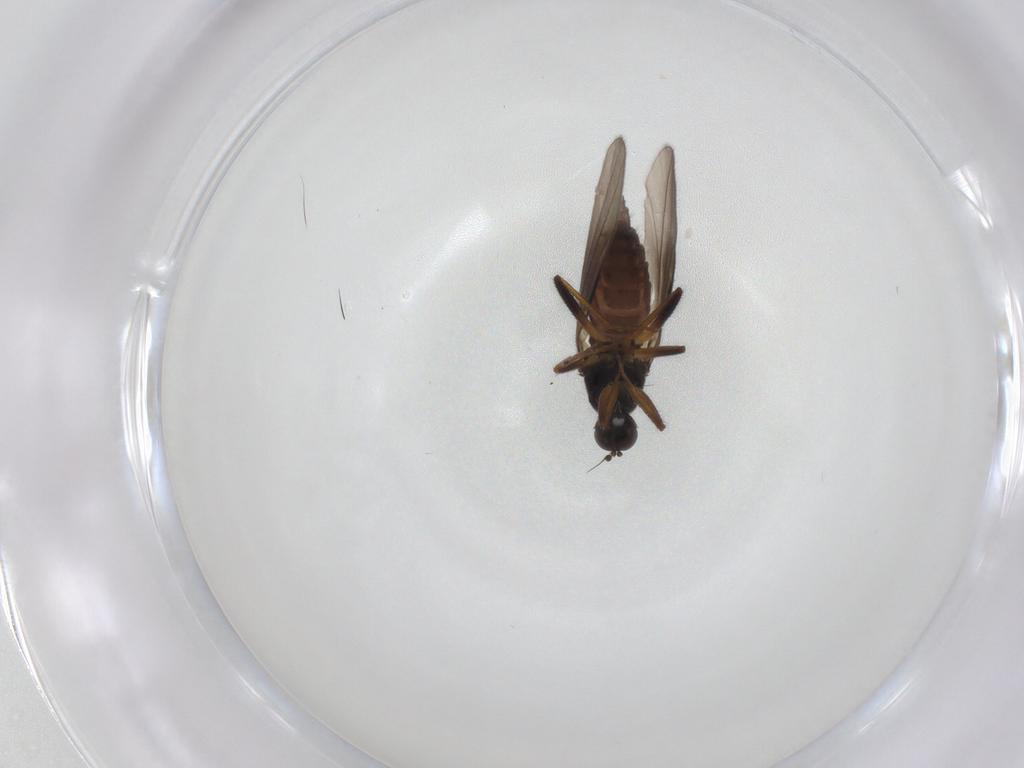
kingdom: Animalia
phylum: Arthropoda
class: Insecta
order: Diptera
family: Hybotidae
